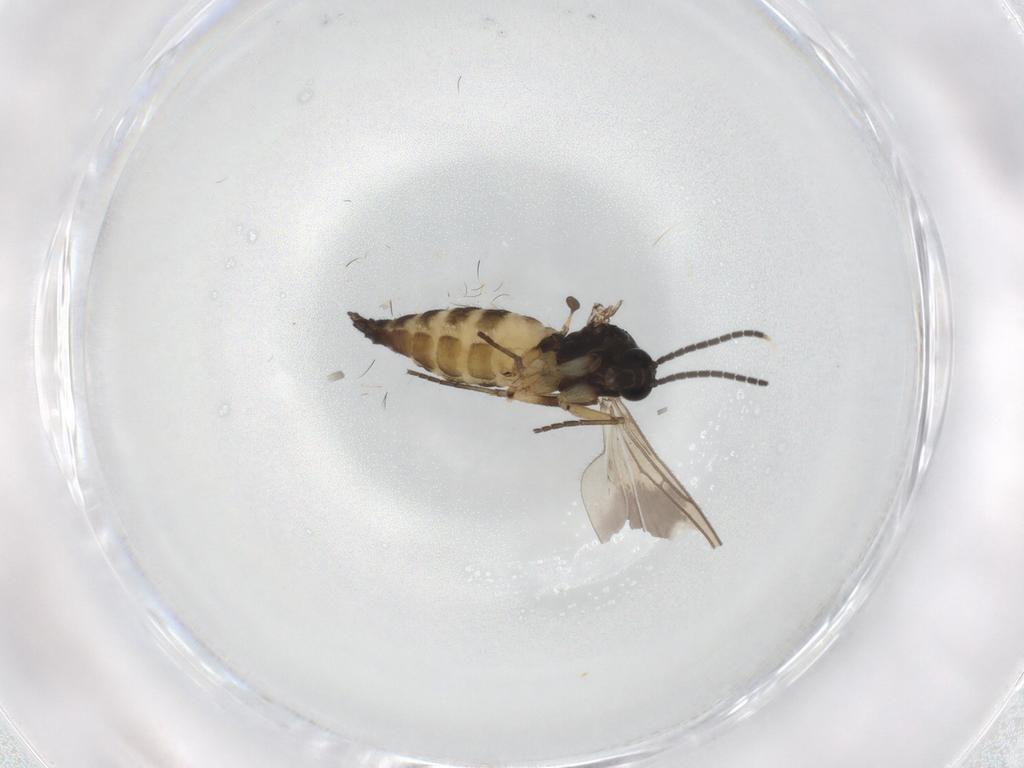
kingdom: Animalia
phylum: Arthropoda
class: Insecta
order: Diptera
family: Sciaridae
